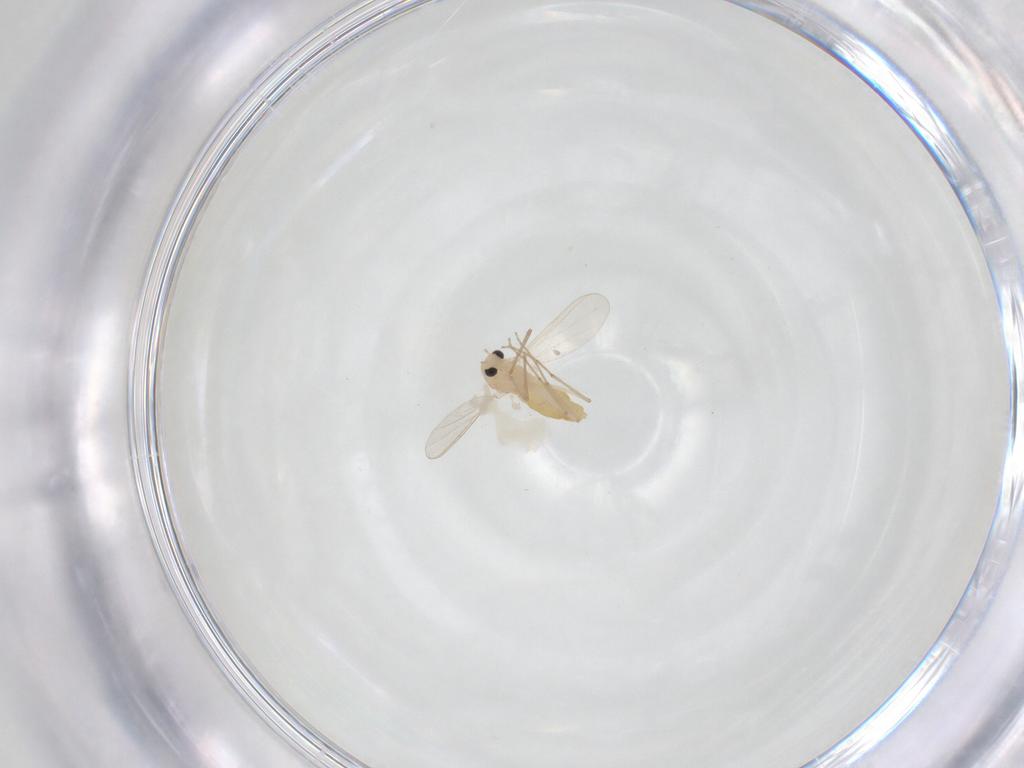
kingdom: Animalia
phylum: Arthropoda
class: Insecta
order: Diptera
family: Chironomidae
